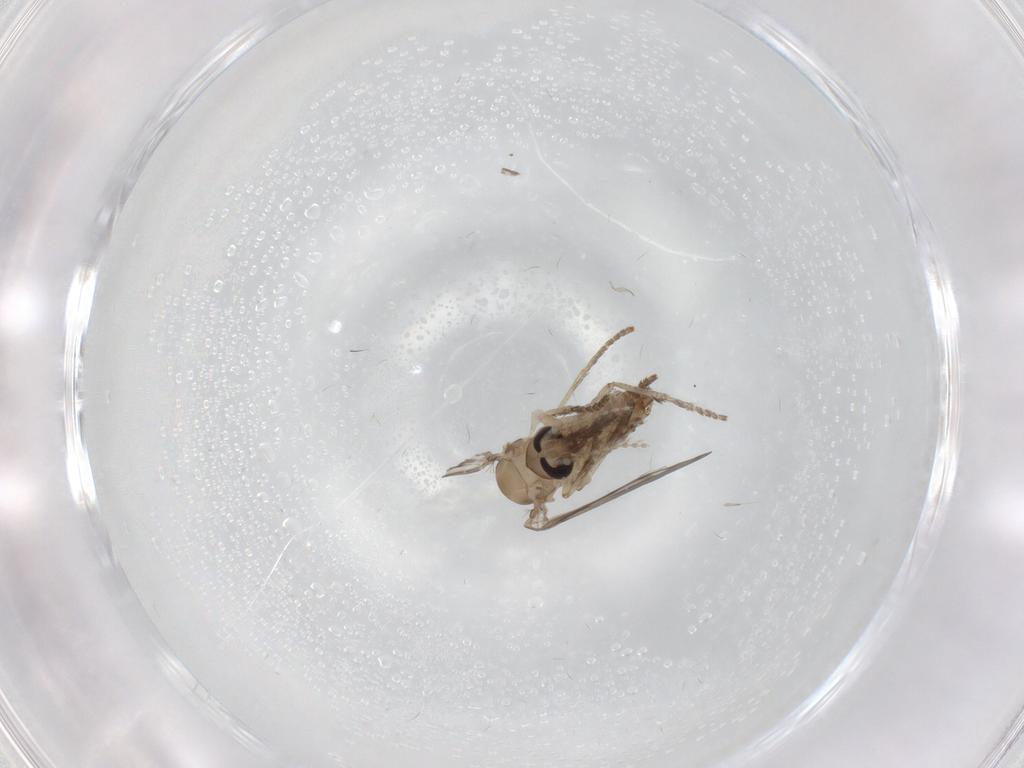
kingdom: Animalia
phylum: Arthropoda
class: Insecta
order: Diptera
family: Psychodidae
